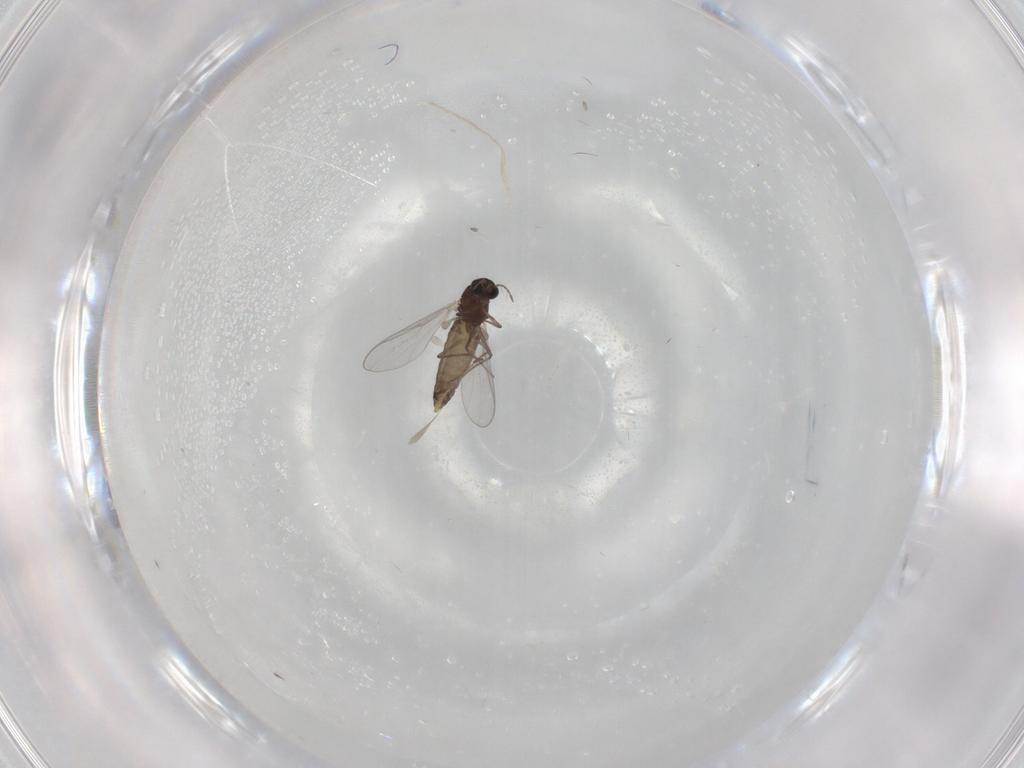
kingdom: Animalia
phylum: Arthropoda
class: Insecta
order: Diptera
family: Chironomidae
